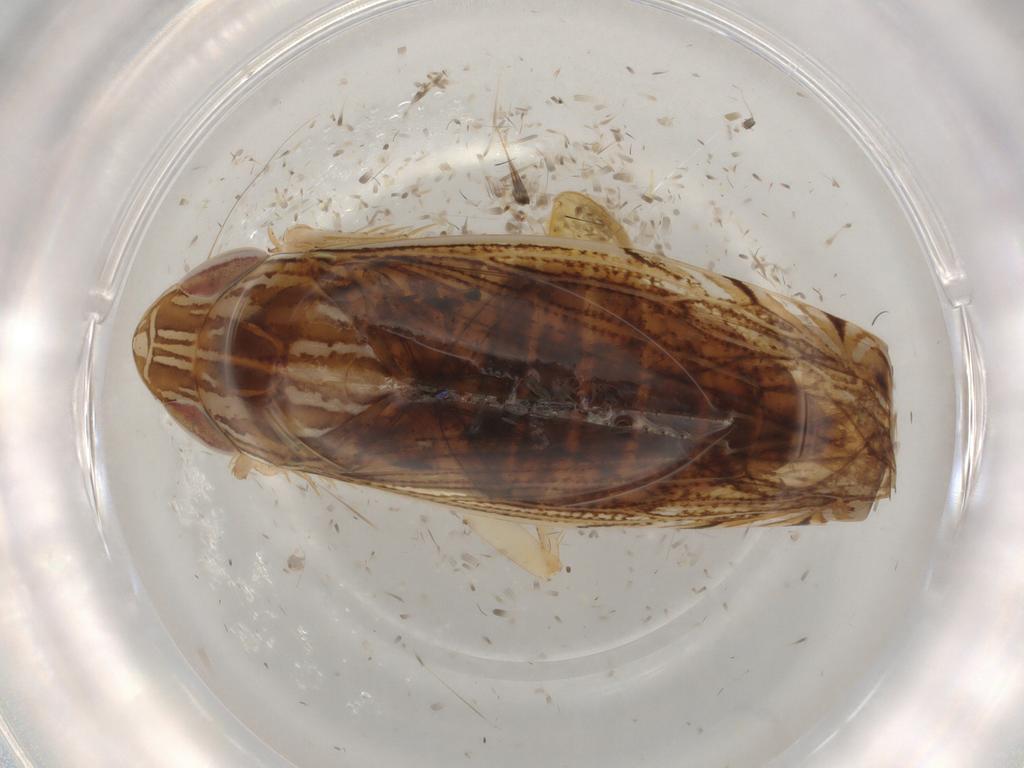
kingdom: Animalia
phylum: Arthropoda
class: Insecta
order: Hemiptera
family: Cicadellidae
